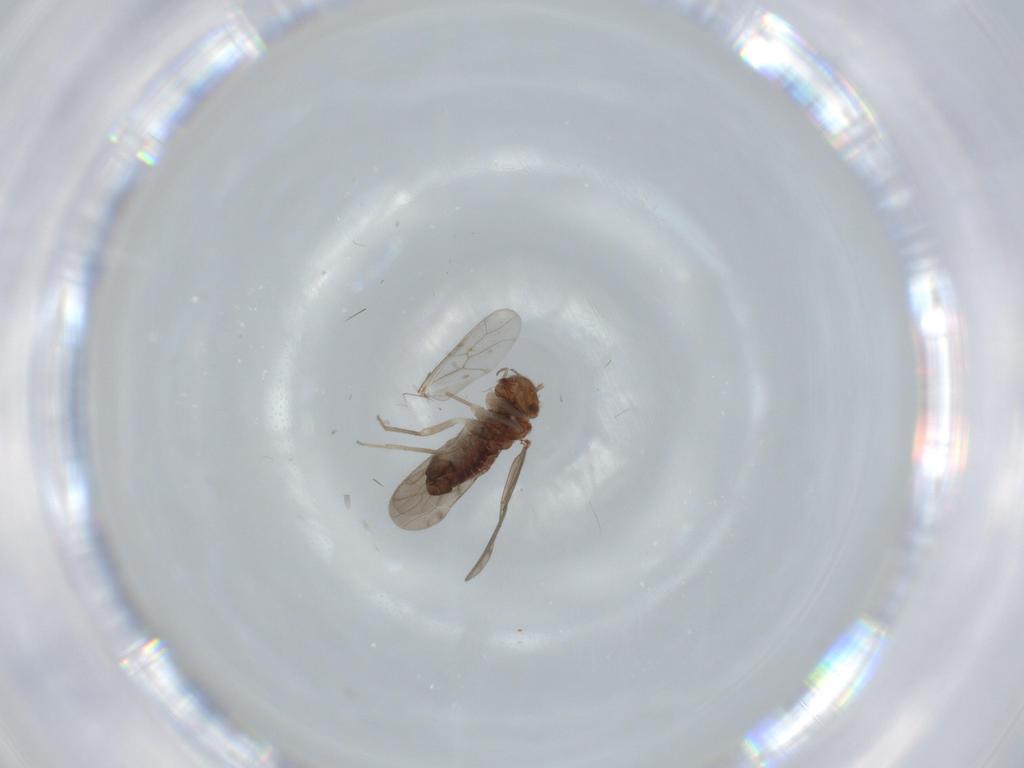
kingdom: Animalia
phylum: Arthropoda
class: Insecta
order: Psocodea
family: Ectopsocidae
